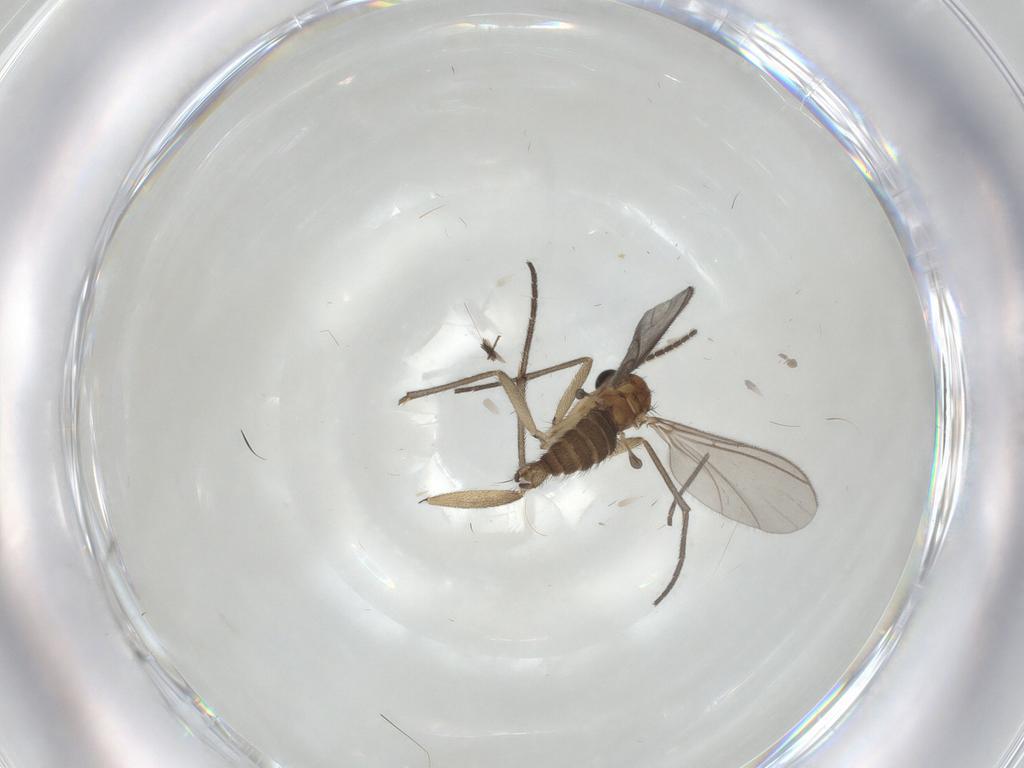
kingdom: Animalia
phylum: Arthropoda
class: Insecta
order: Diptera
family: Sciaridae
